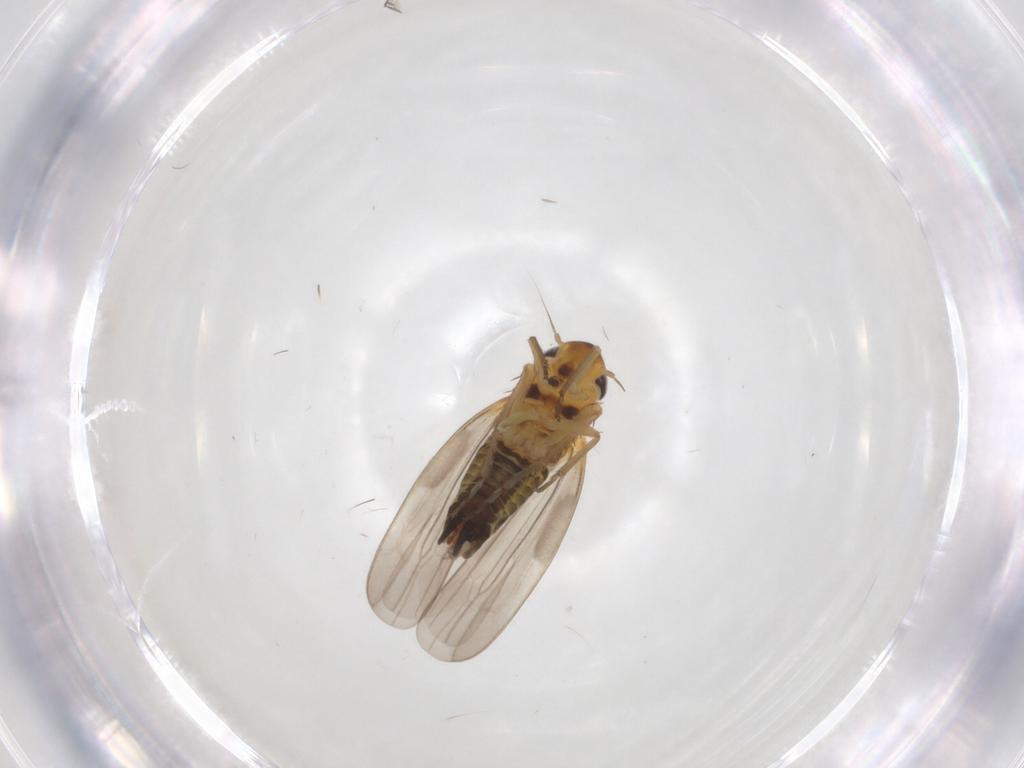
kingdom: Animalia
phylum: Arthropoda
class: Insecta
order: Hemiptera
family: Cicadellidae
